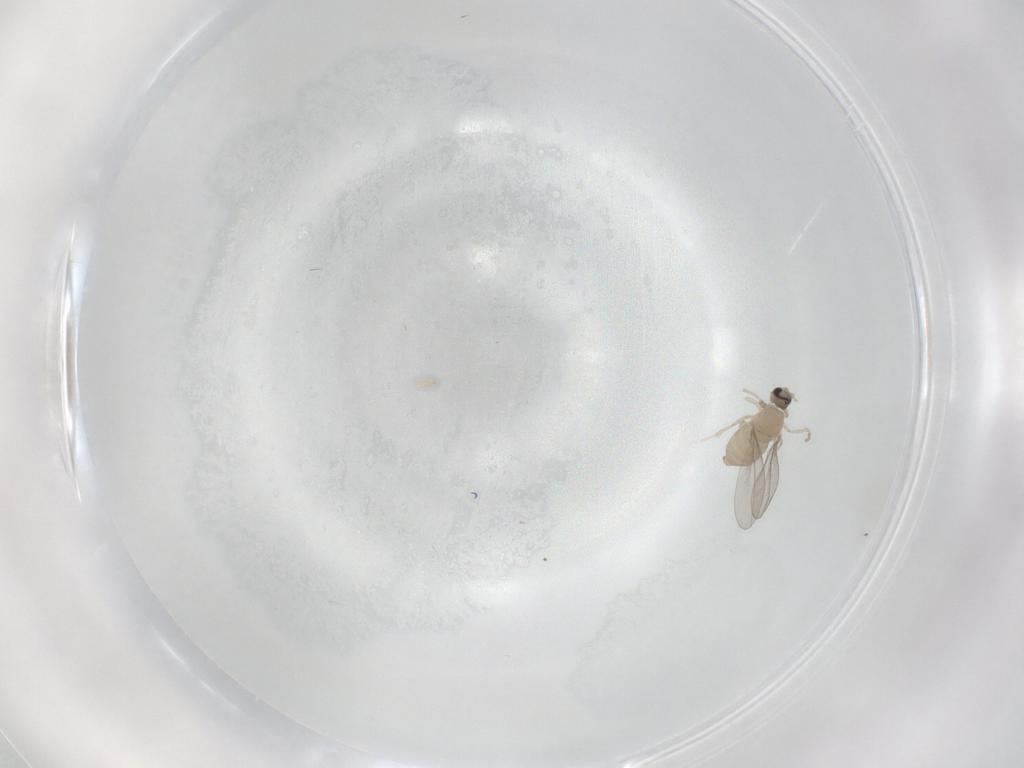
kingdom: Animalia
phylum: Arthropoda
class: Insecta
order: Diptera
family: Cecidomyiidae
